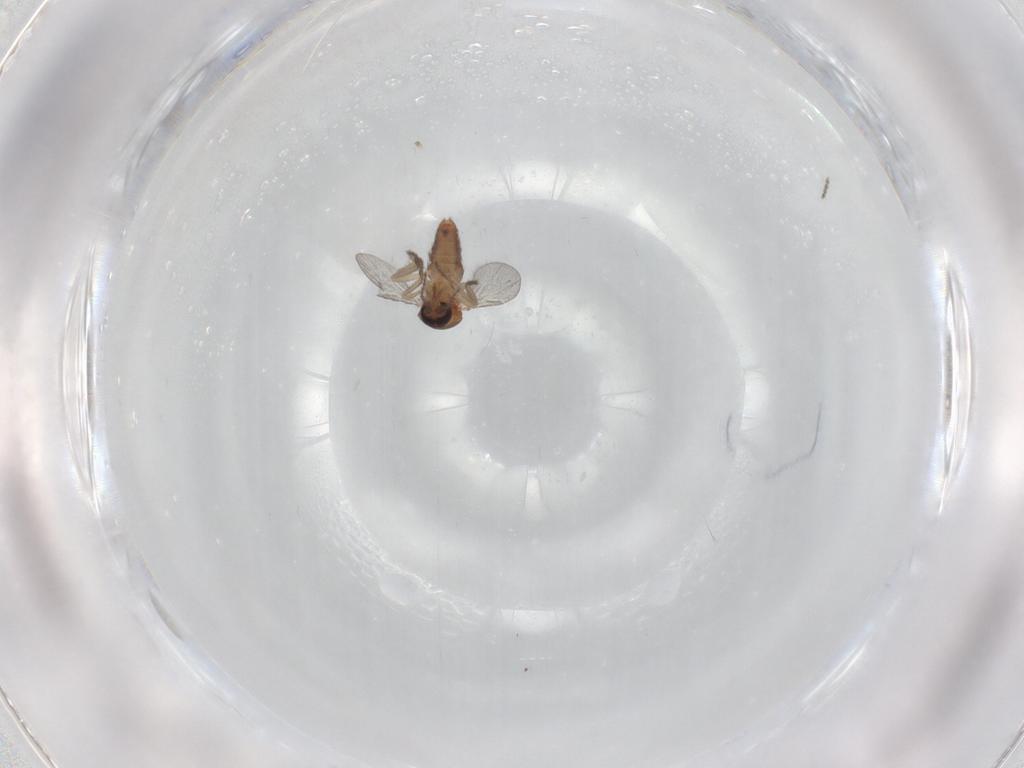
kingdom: Animalia
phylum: Arthropoda
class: Insecta
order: Diptera
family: Ceratopogonidae
